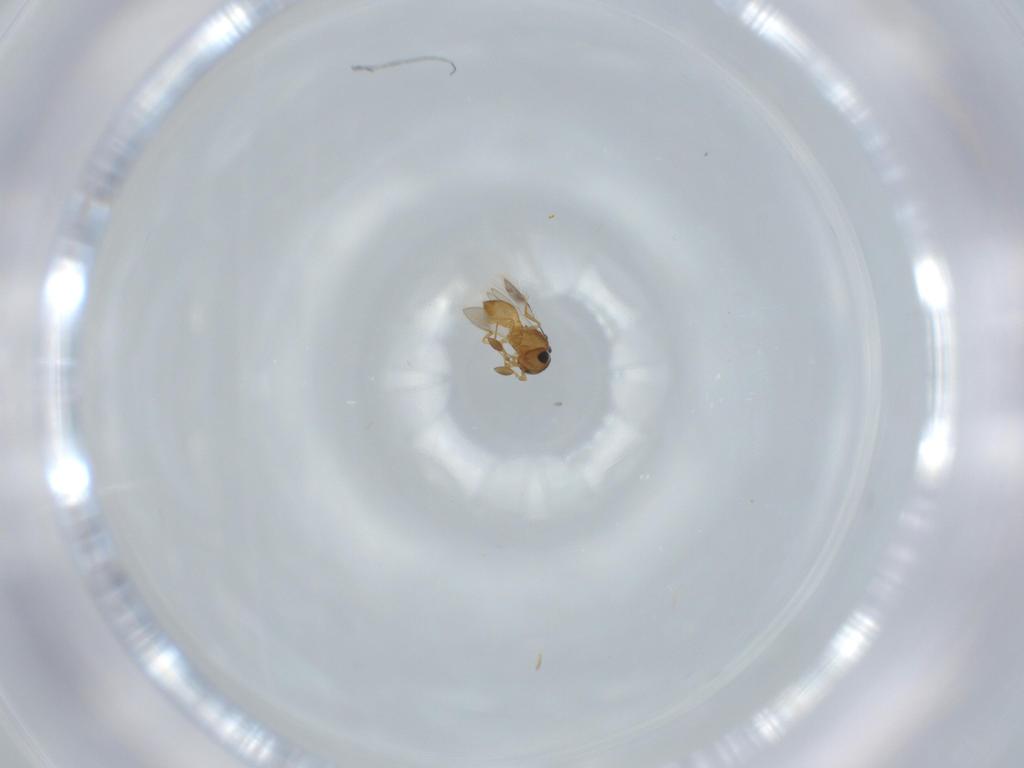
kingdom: Animalia
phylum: Arthropoda
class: Insecta
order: Hymenoptera
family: Scelionidae
